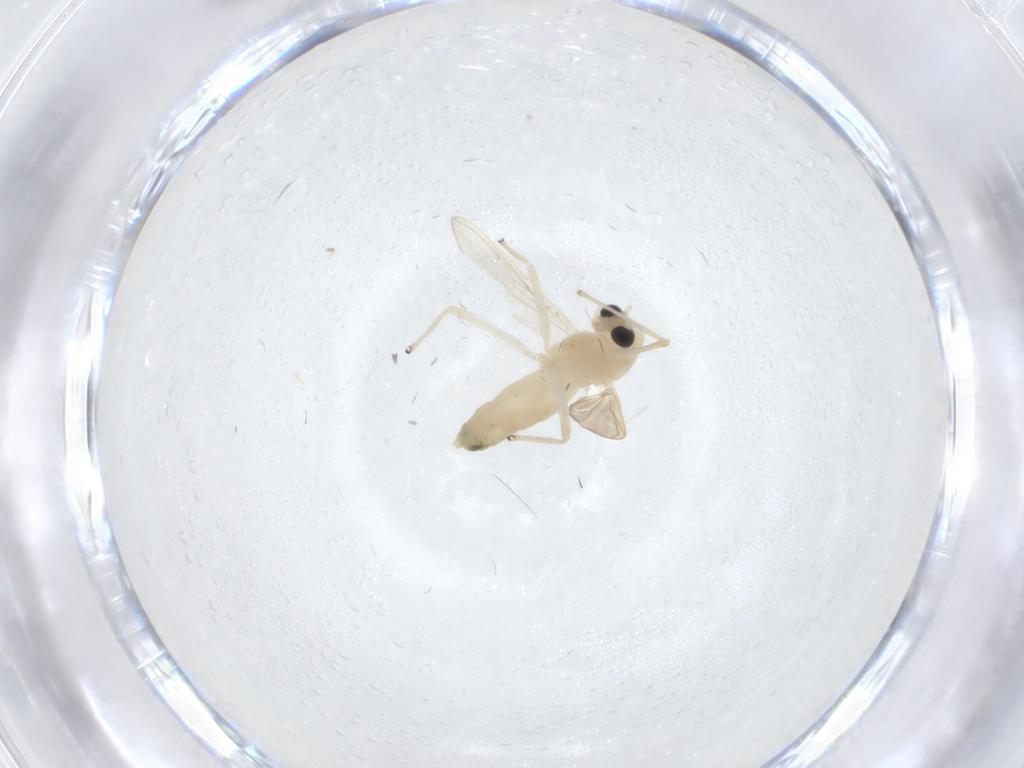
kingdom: Animalia
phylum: Arthropoda
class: Insecta
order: Diptera
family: Chironomidae
